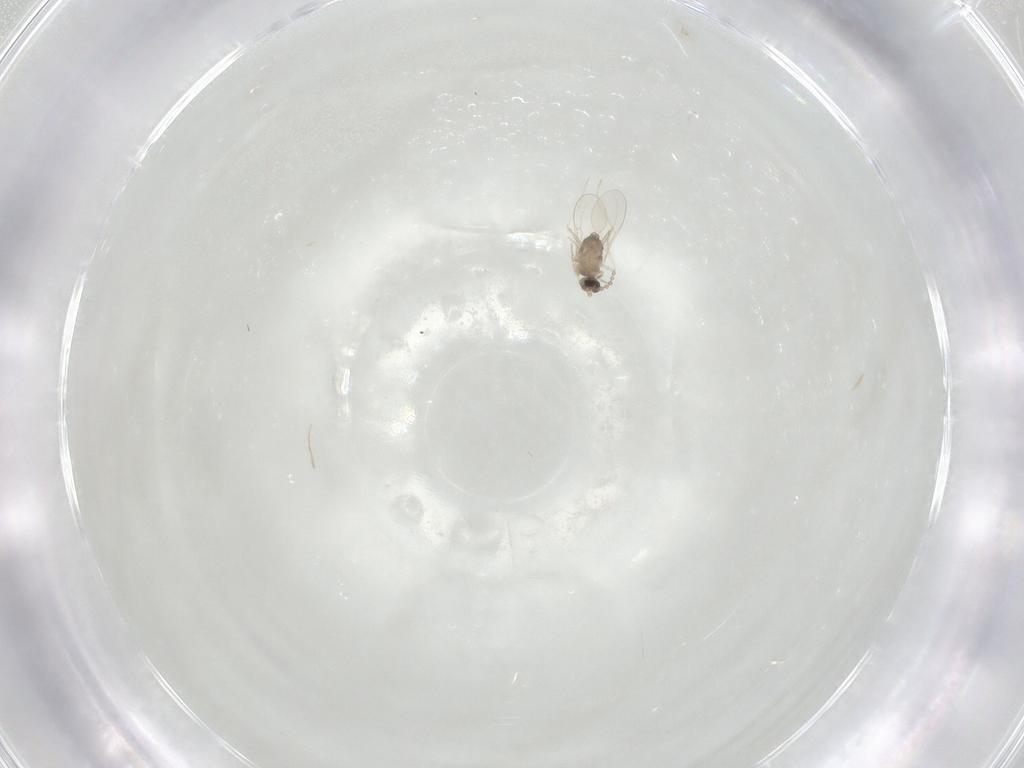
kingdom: Animalia
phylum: Arthropoda
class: Insecta
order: Diptera
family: Cecidomyiidae
